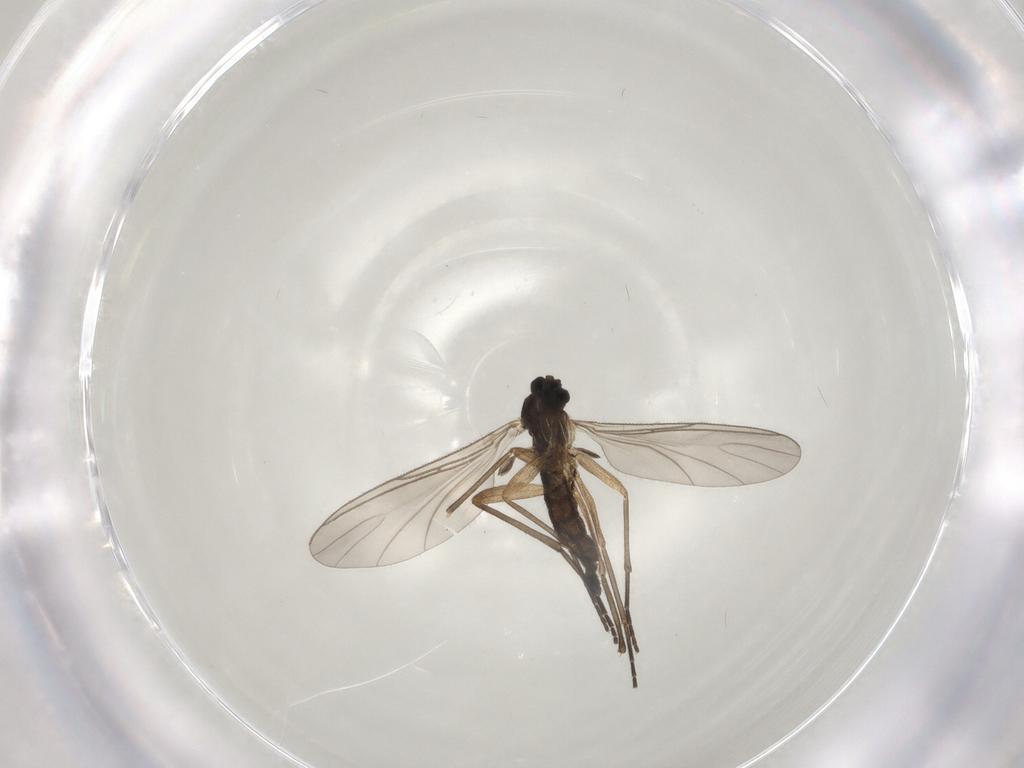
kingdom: Animalia
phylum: Arthropoda
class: Insecta
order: Diptera
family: Sciaridae
